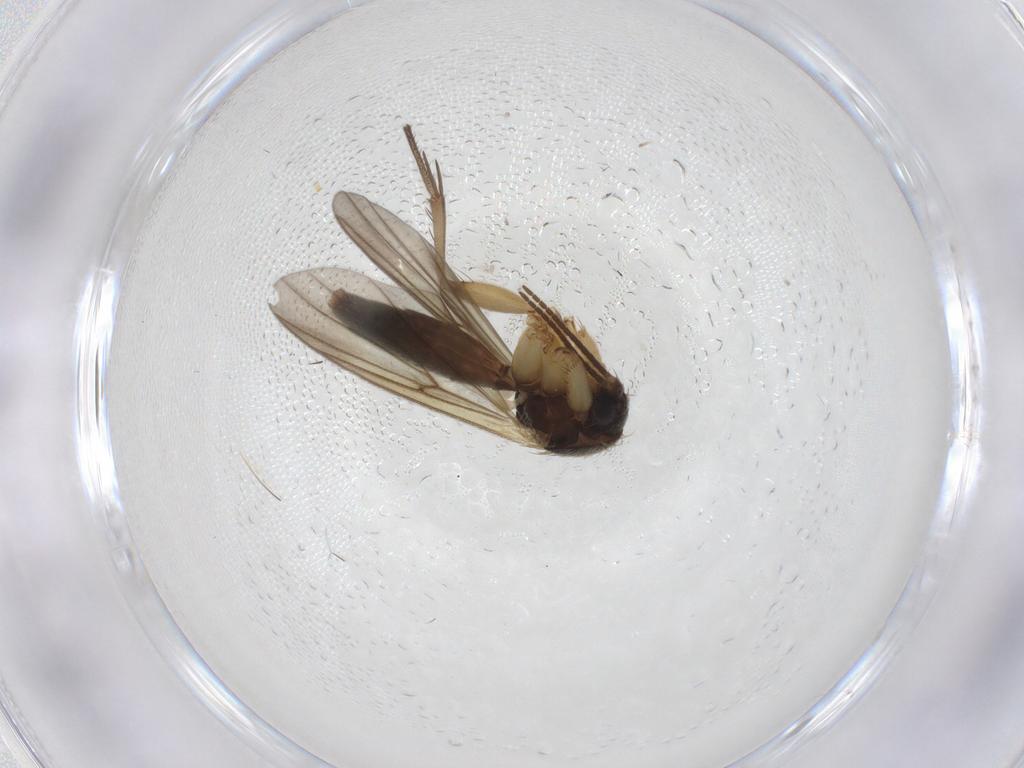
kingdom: Animalia
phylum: Arthropoda
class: Insecta
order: Diptera
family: Mycetophilidae
